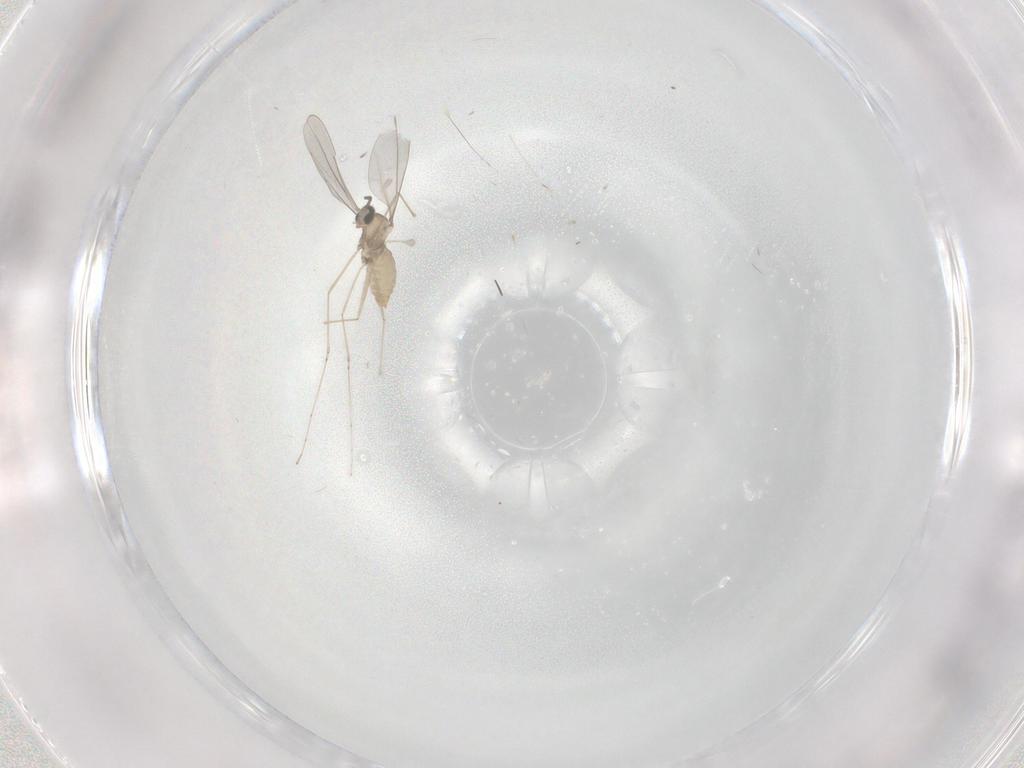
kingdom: Animalia
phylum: Arthropoda
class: Insecta
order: Diptera
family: Cecidomyiidae
